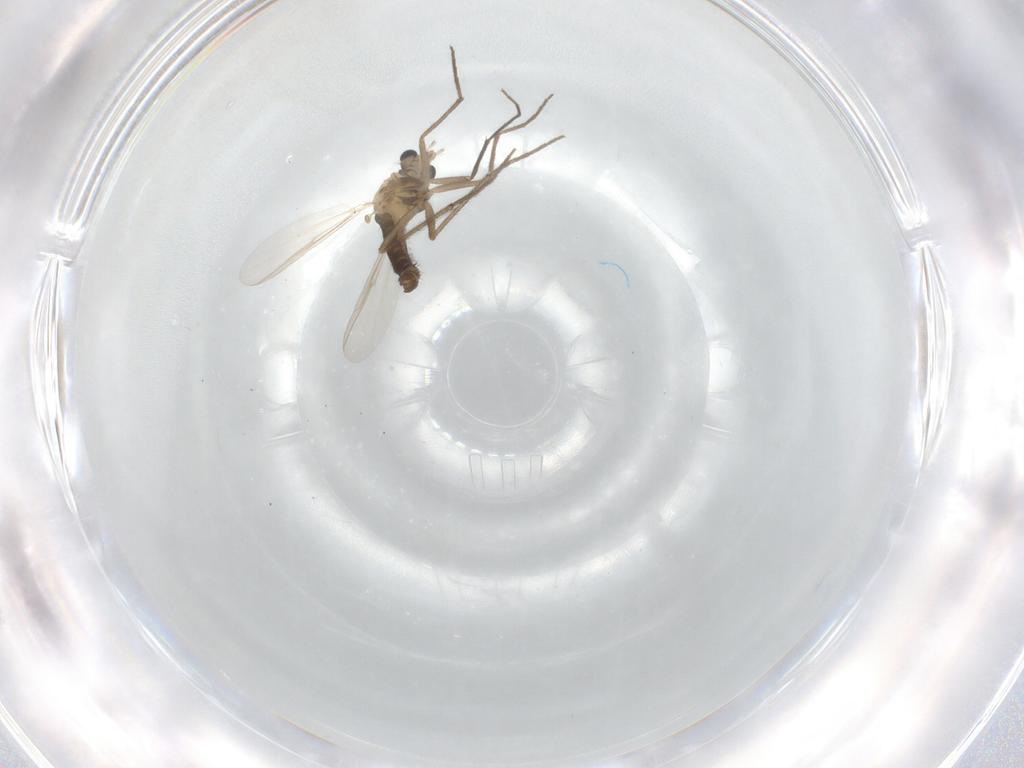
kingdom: Animalia
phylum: Arthropoda
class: Insecta
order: Diptera
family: Chironomidae
